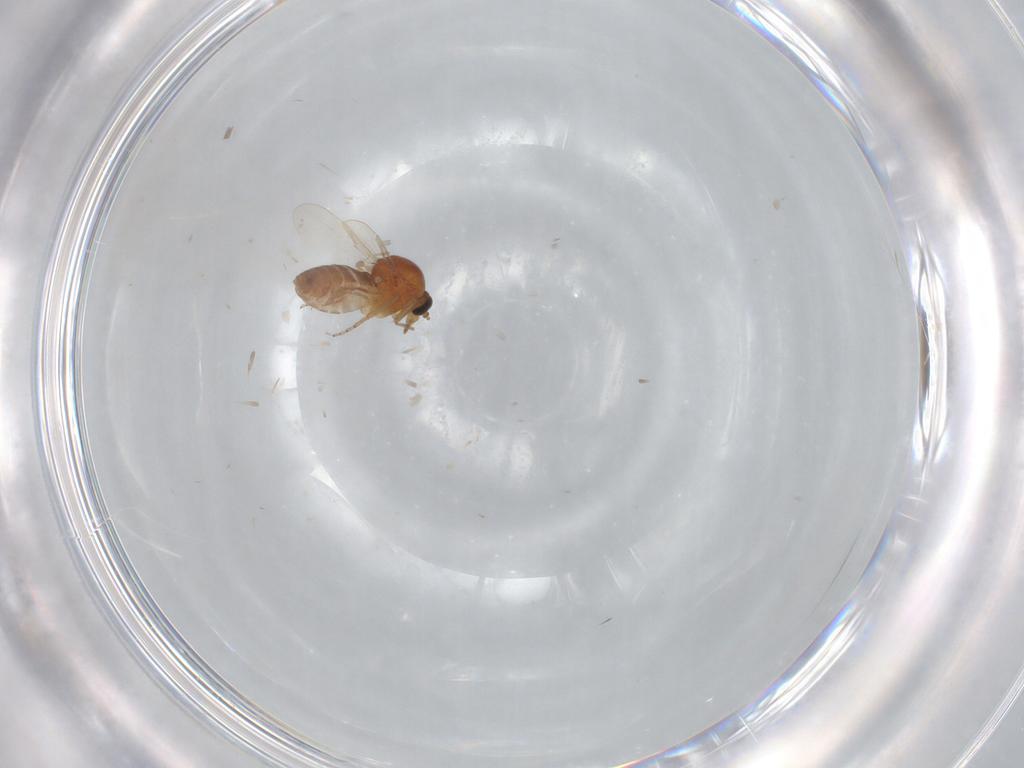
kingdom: Animalia
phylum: Arthropoda
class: Insecta
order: Diptera
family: Ceratopogonidae
